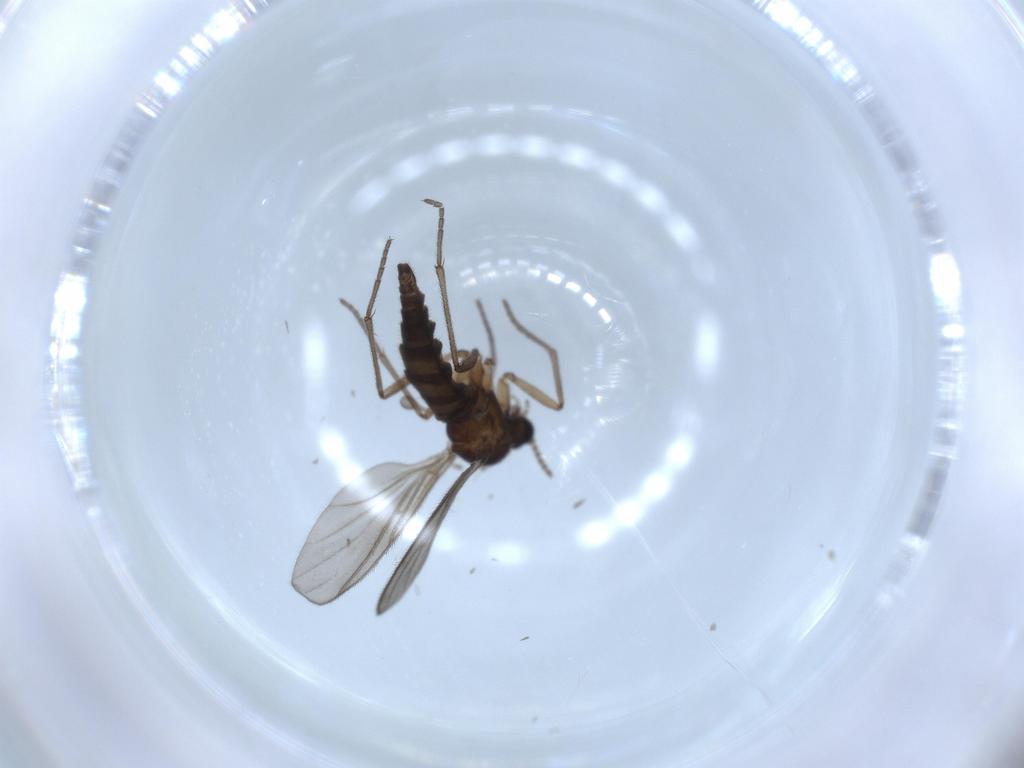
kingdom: Animalia
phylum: Arthropoda
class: Insecta
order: Diptera
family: Sciaridae
